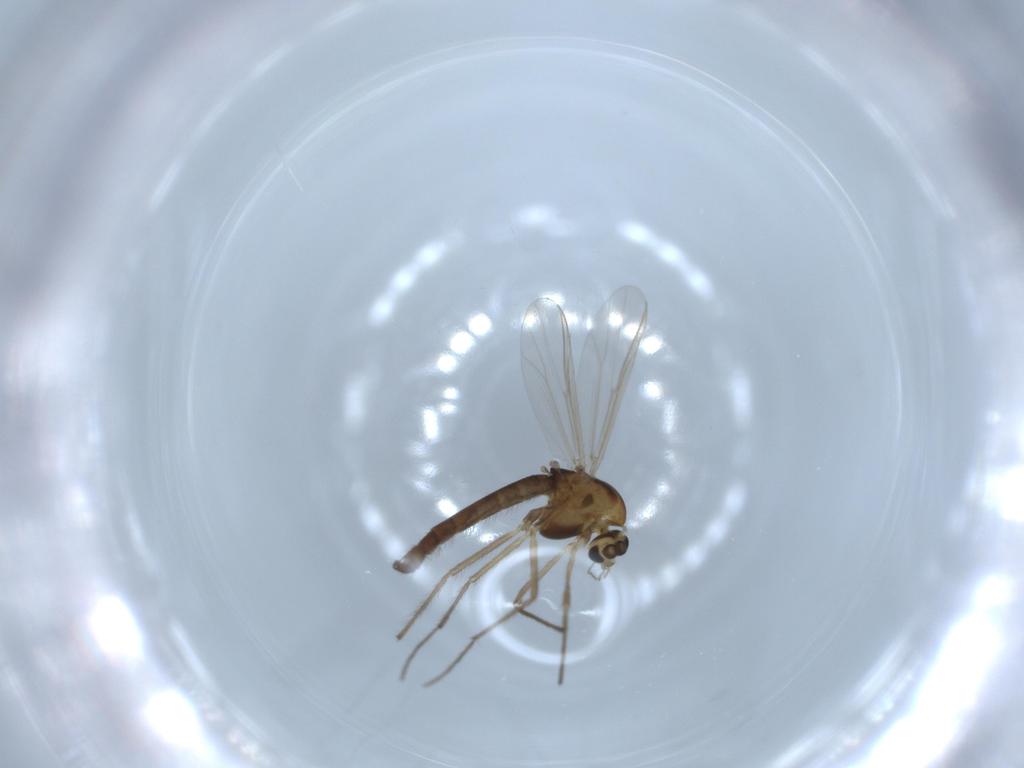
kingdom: Animalia
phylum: Arthropoda
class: Insecta
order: Diptera
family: Chironomidae
